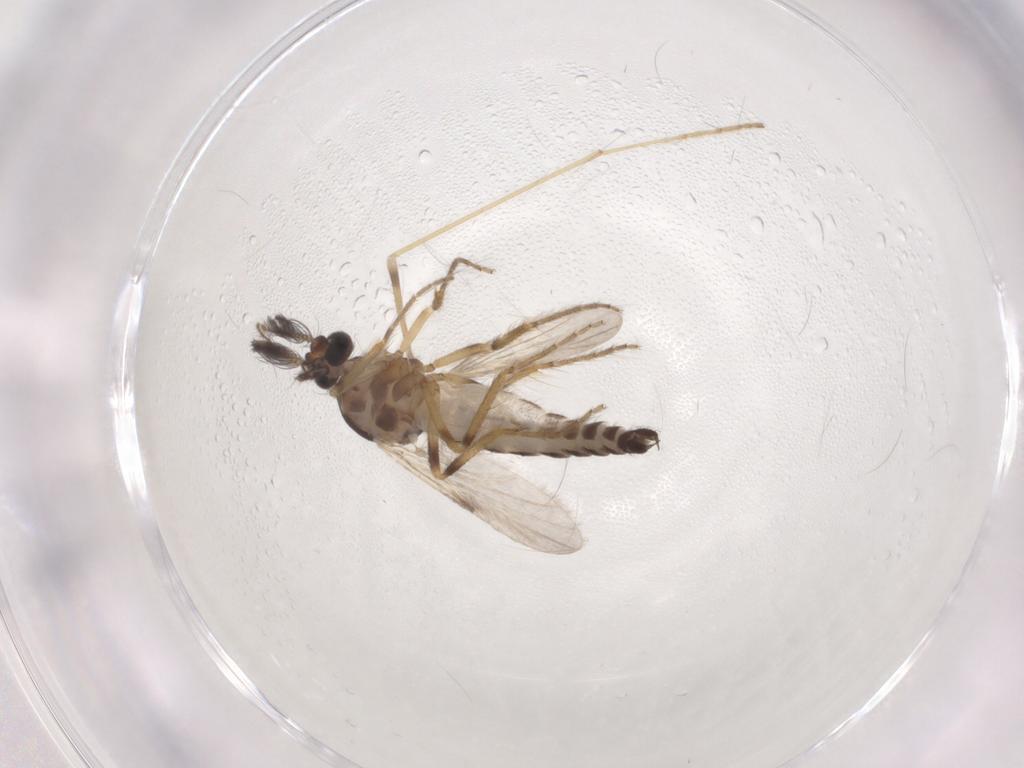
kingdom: Animalia
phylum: Arthropoda
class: Insecta
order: Diptera
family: Ceratopogonidae
